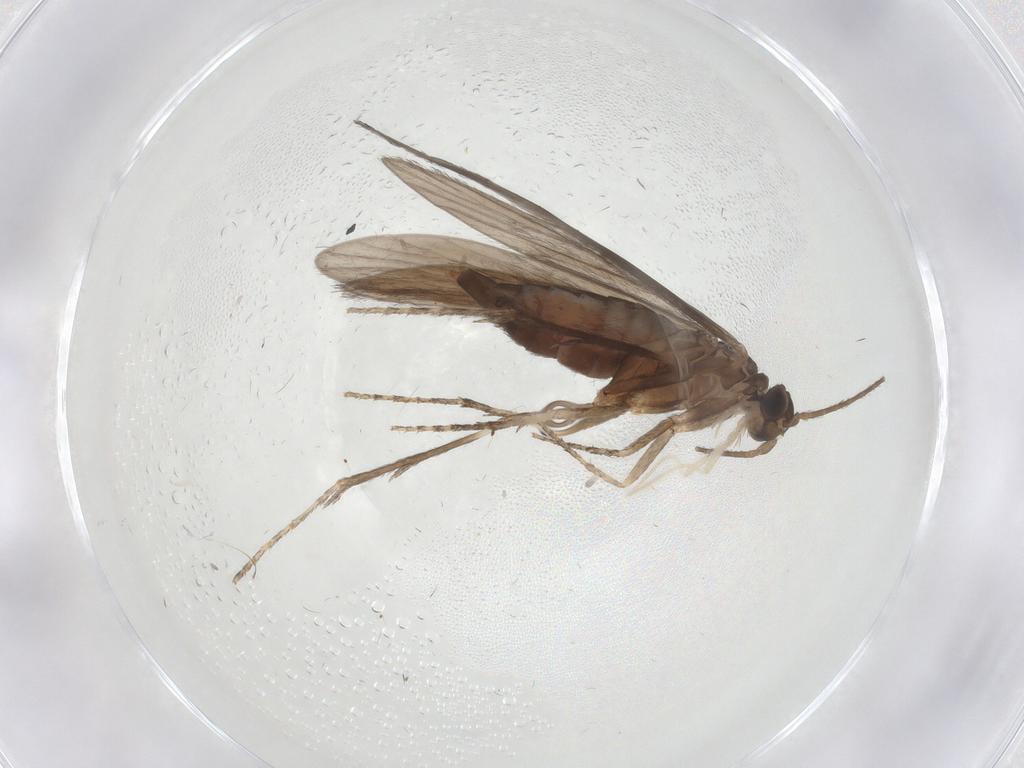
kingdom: Animalia
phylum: Arthropoda
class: Insecta
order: Trichoptera
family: Xiphocentronidae
